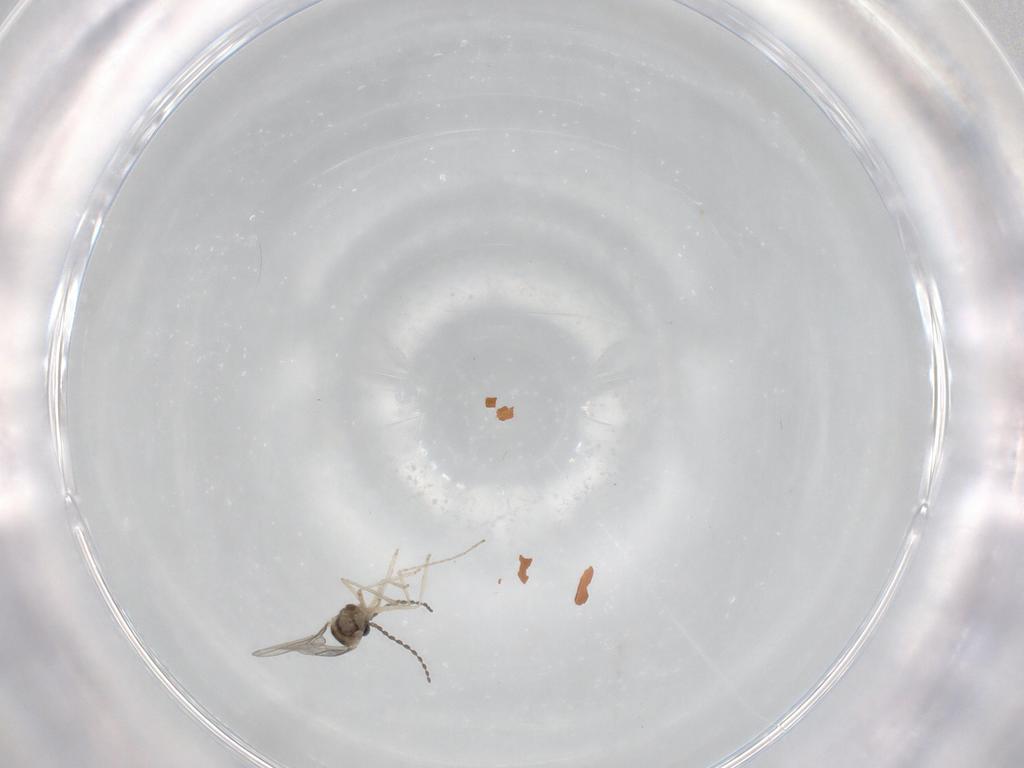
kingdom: Animalia
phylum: Arthropoda
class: Insecta
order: Diptera
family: Cecidomyiidae
